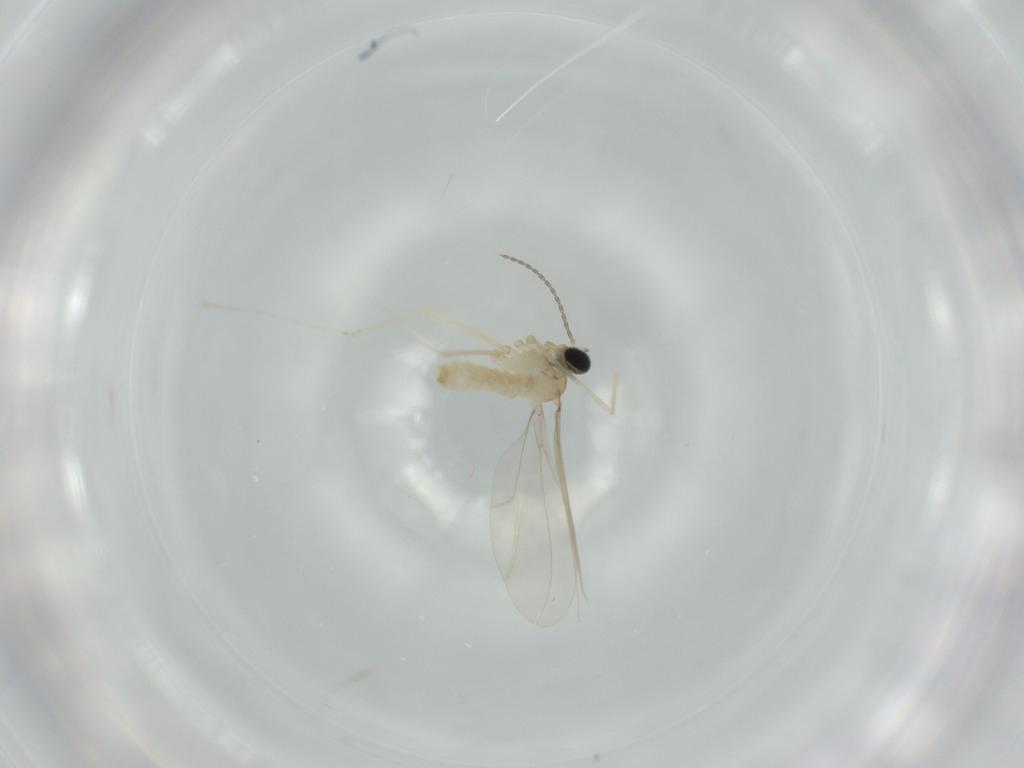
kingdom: Animalia
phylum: Arthropoda
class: Insecta
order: Diptera
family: Cecidomyiidae
